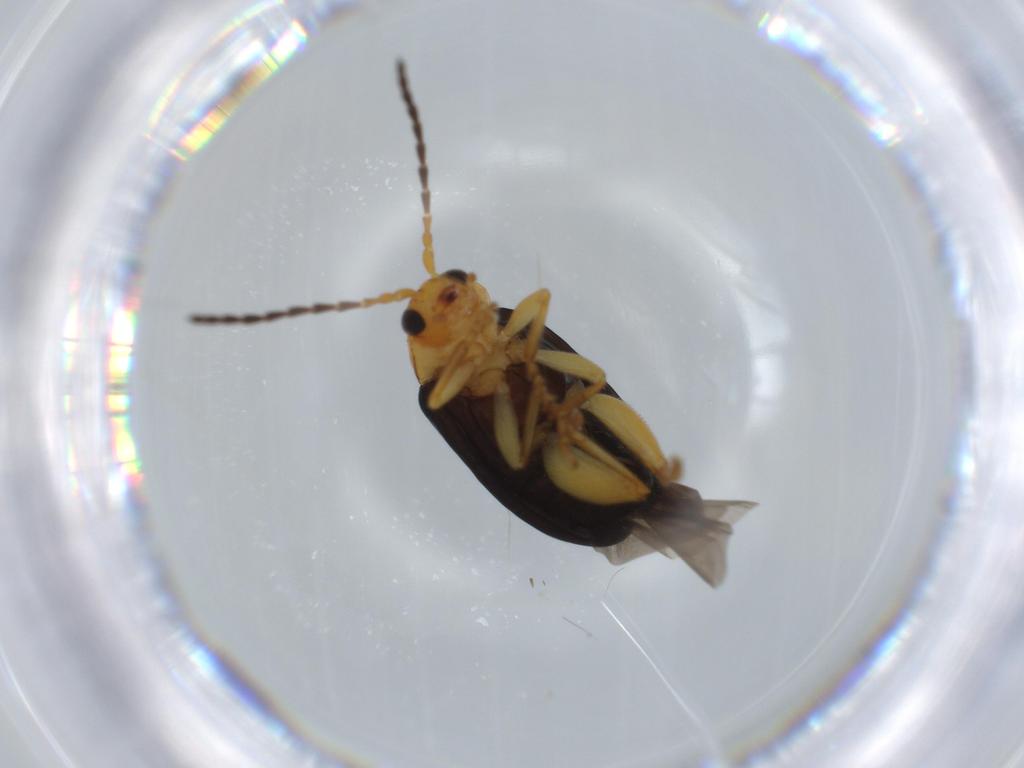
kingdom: Animalia
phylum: Arthropoda
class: Insecta
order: Coleoptera
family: Chrysomelidae
